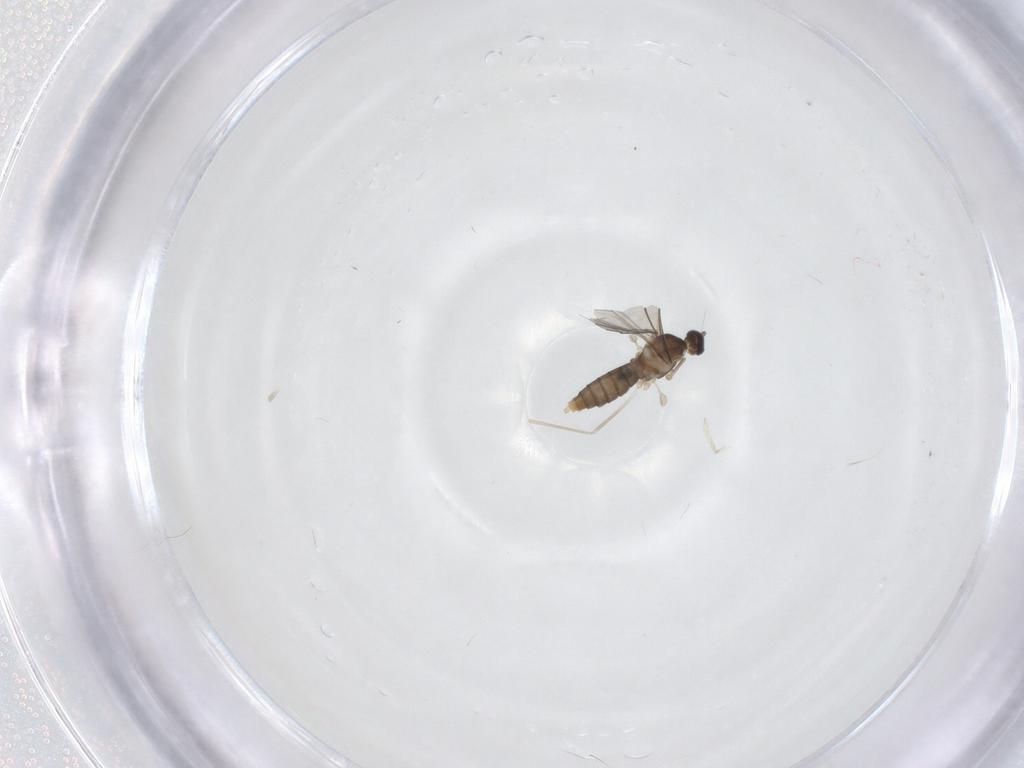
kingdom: Animalia
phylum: Arthropoda
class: Insecta
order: Diptera
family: Cecidomyiidae
